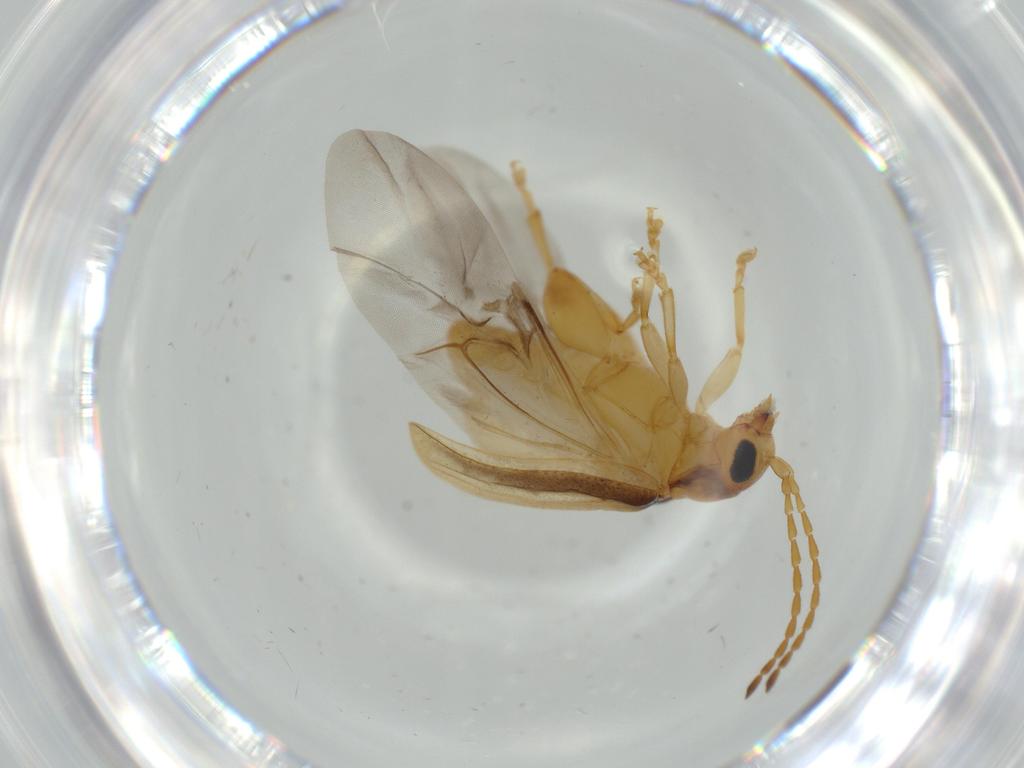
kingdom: Animalia
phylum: Arthropoda
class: Insecta
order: Coleoptera
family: Chrysomelidae
